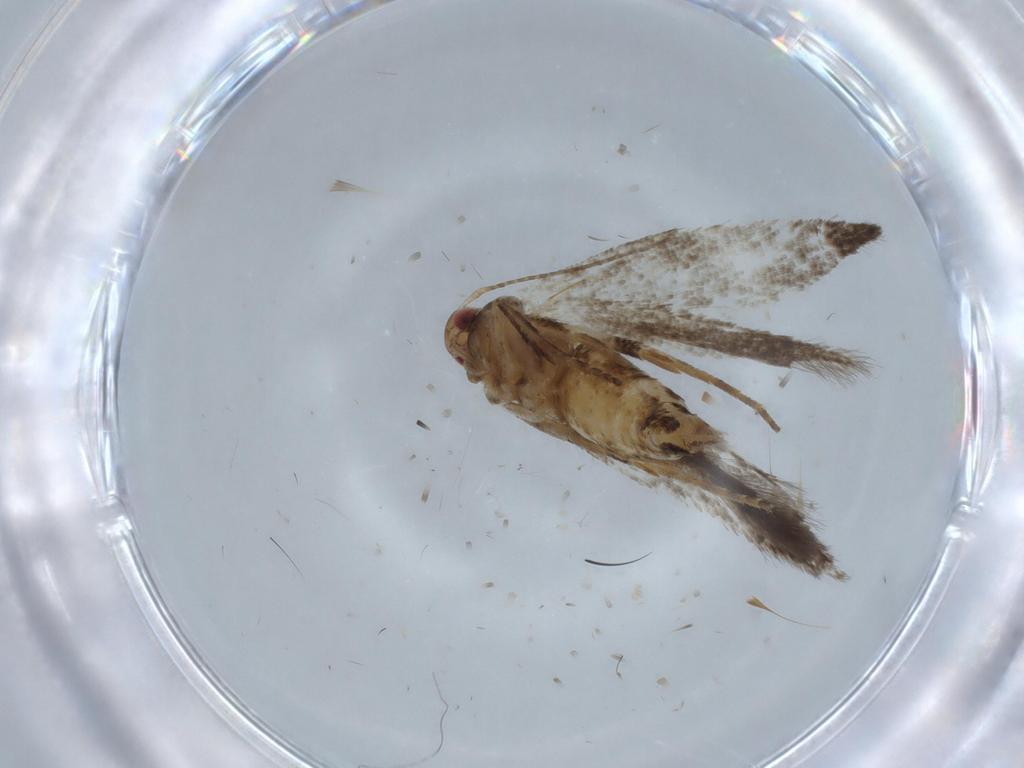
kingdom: Animalia
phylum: Arthropoda
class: Insecta
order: Lepidoptera
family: Gelechiidae
